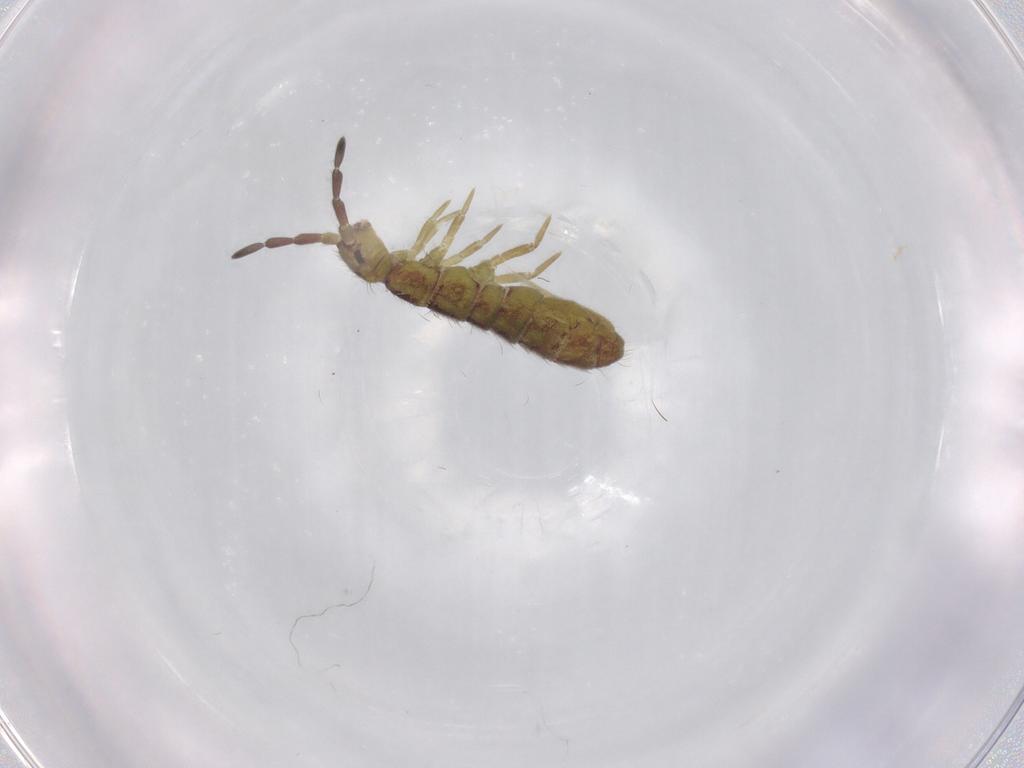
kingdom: Animalia
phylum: Arthropoda
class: Collembola
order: Entomobryomorpha
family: Isotomidae
